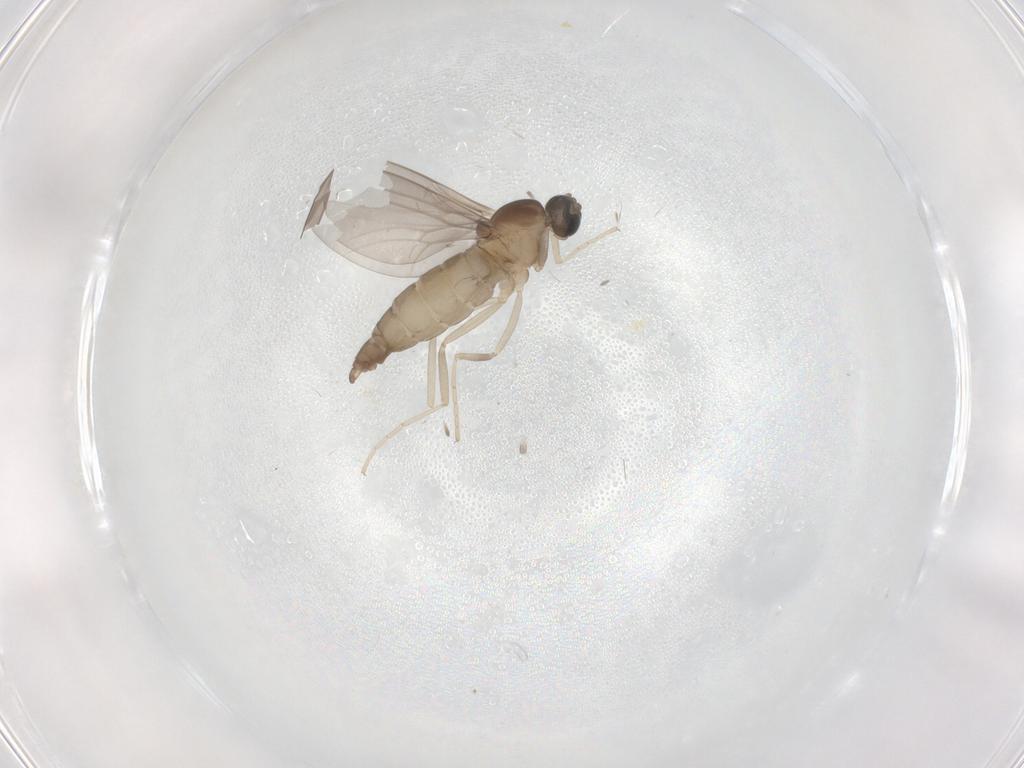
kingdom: Animalia
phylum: Arthropoda
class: Insecta
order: Diptera
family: Cecidomyiidae
